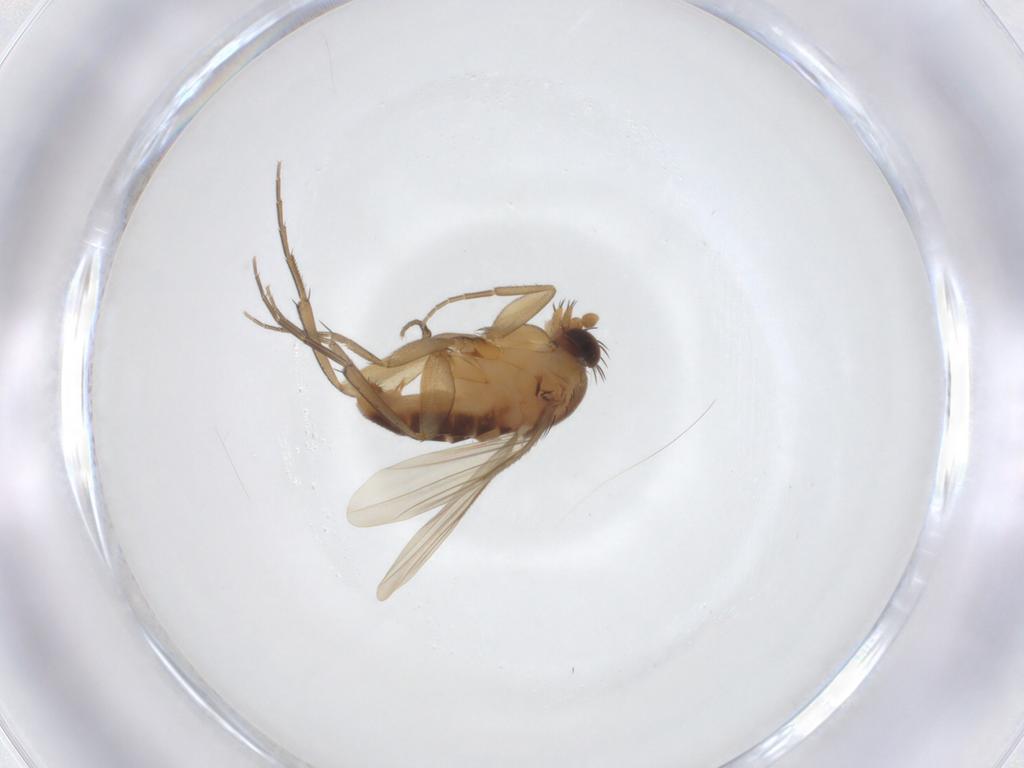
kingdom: Animalia
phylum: Arthropoda
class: Insecta
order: Diptera
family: Phoridae
